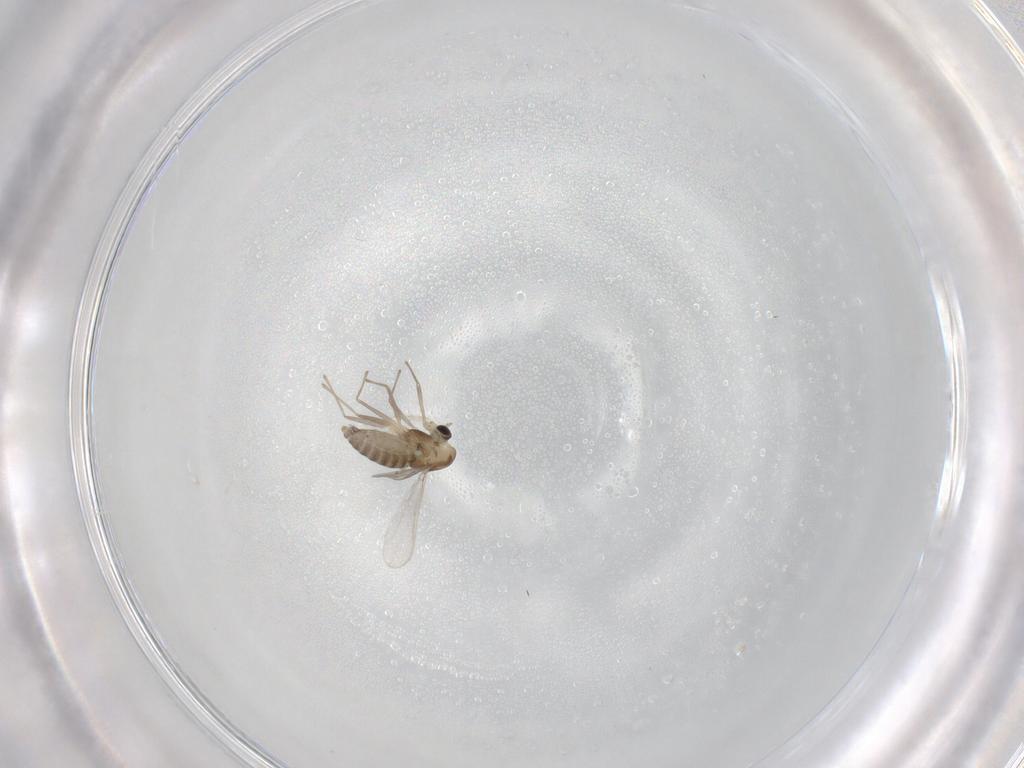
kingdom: Animalia
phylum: Arthropoda
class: Insecta
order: Diptera
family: Chironomidae
